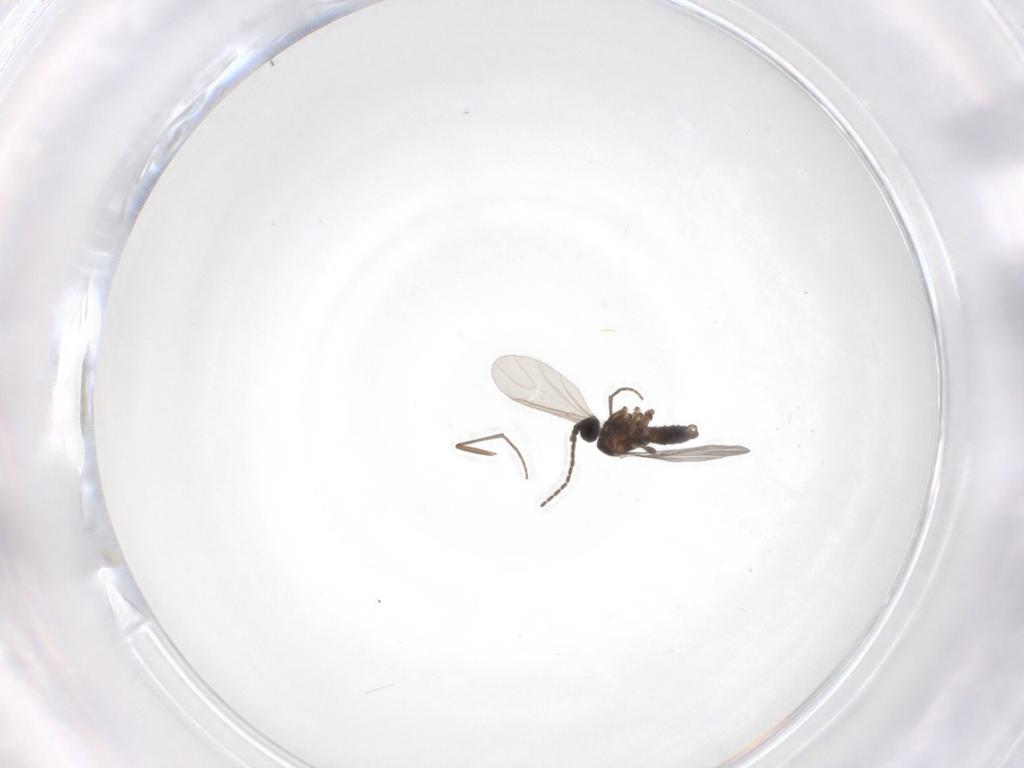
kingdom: Animalia
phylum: Arthropoda
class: Insecta
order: Diptera
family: Sciaridae
